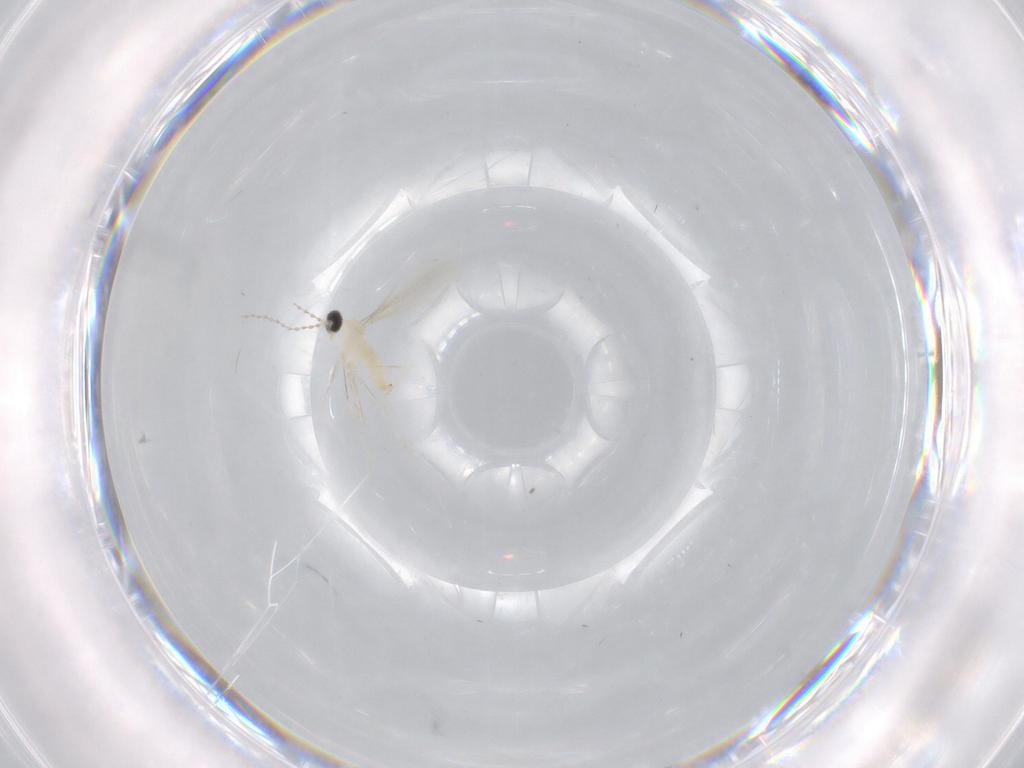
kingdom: Animalia
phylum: Arthropoda
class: Insecta
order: Diptera
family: Cecidomyiidae
